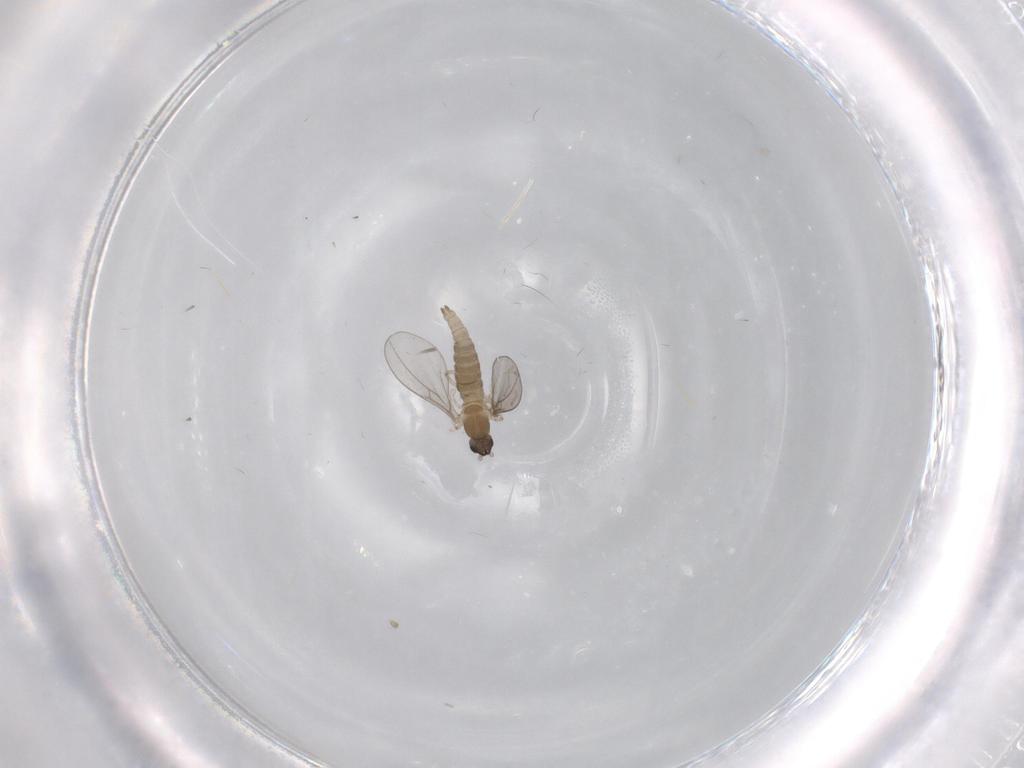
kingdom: Animalia
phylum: Arthropoda
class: Insecta
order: Diptera
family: Cecidomyiidae
